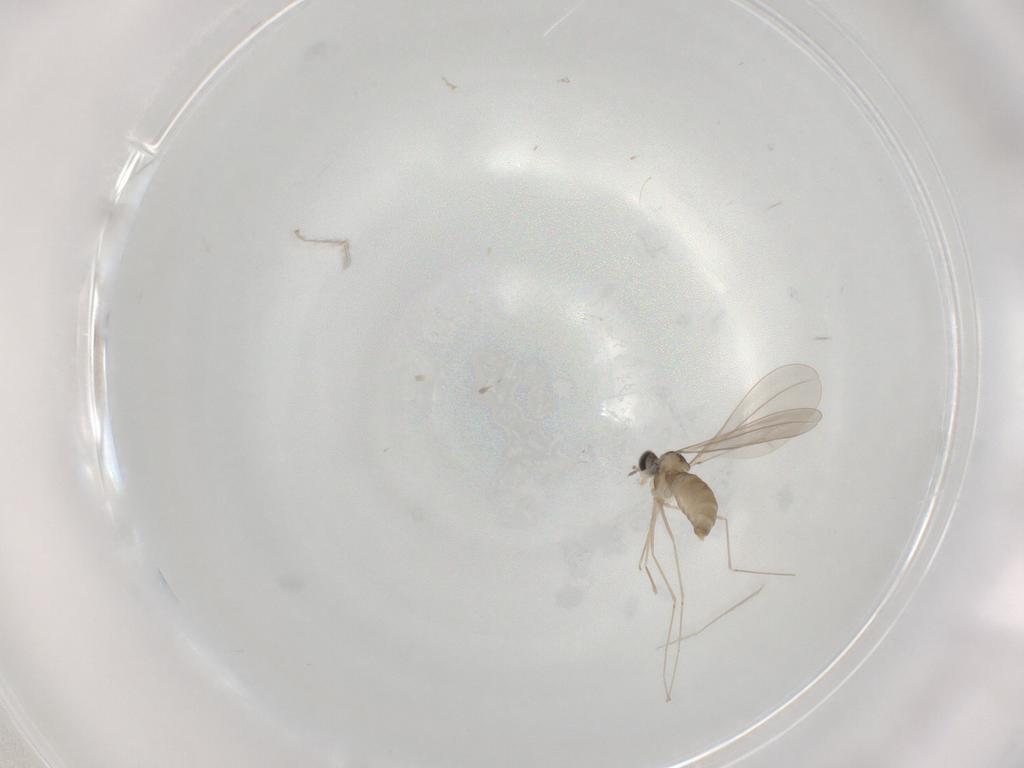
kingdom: Animalia
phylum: Arthropoda
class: Insecta
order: Diptera
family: Cecidomyiidae
